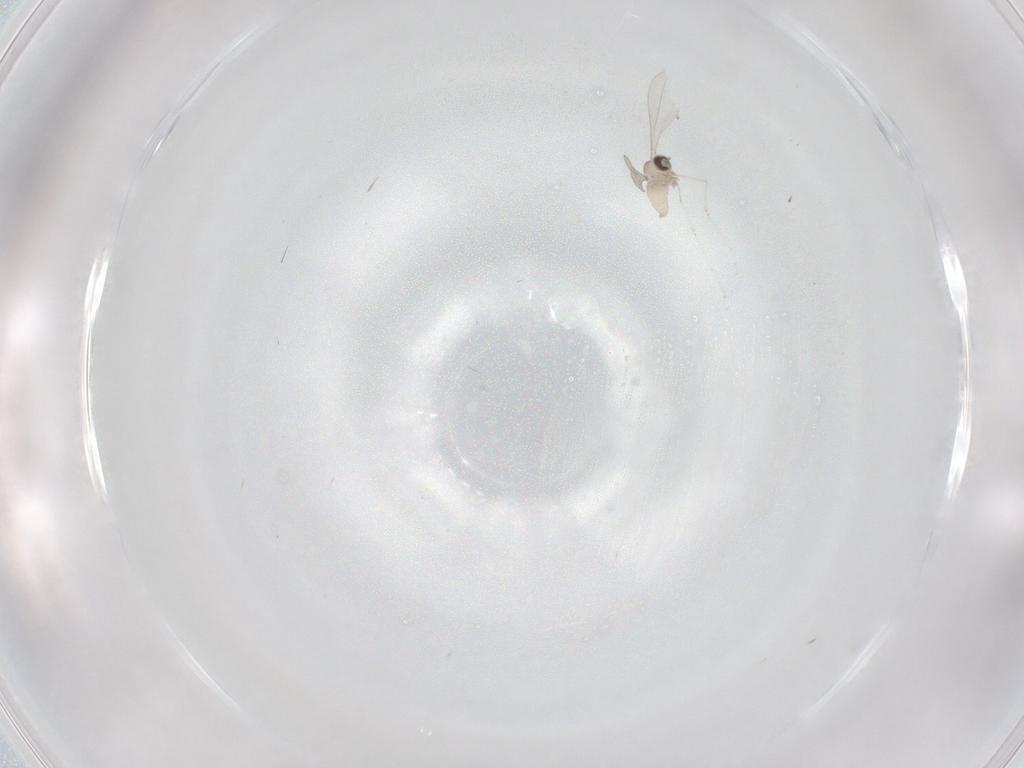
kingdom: Animalia
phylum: Arthropoda
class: Insecta
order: Diptera
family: Cecidomyiidae
